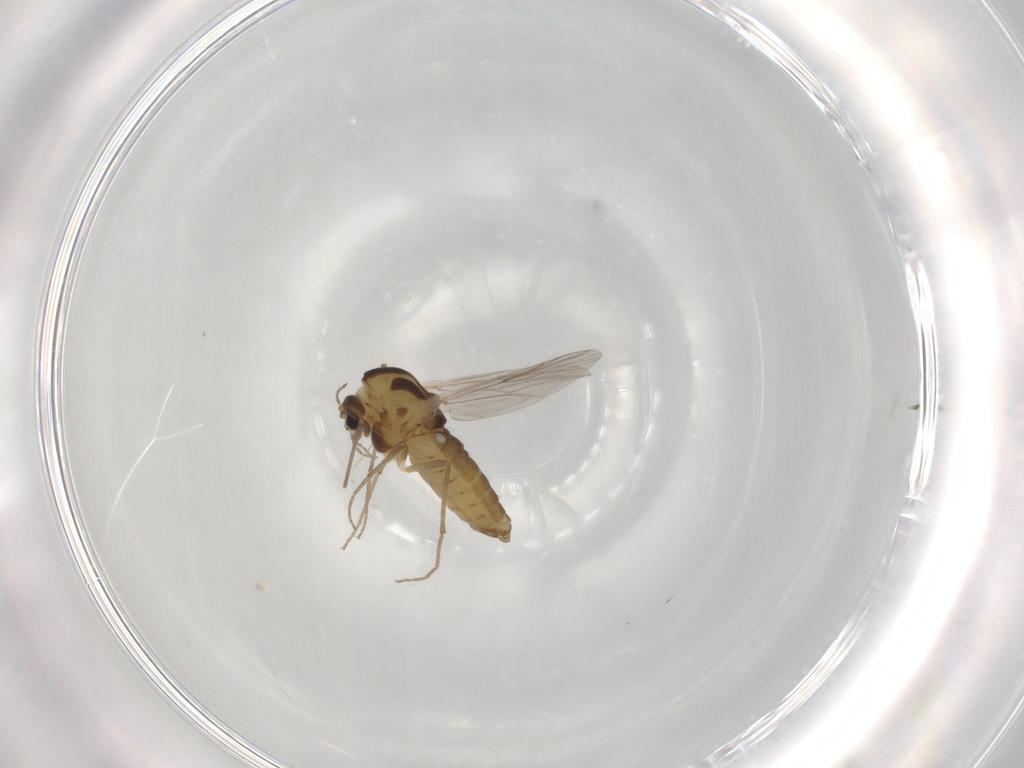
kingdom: Animalia
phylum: Arthropoda
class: Insecta
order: Diptera
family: Chironomidae
